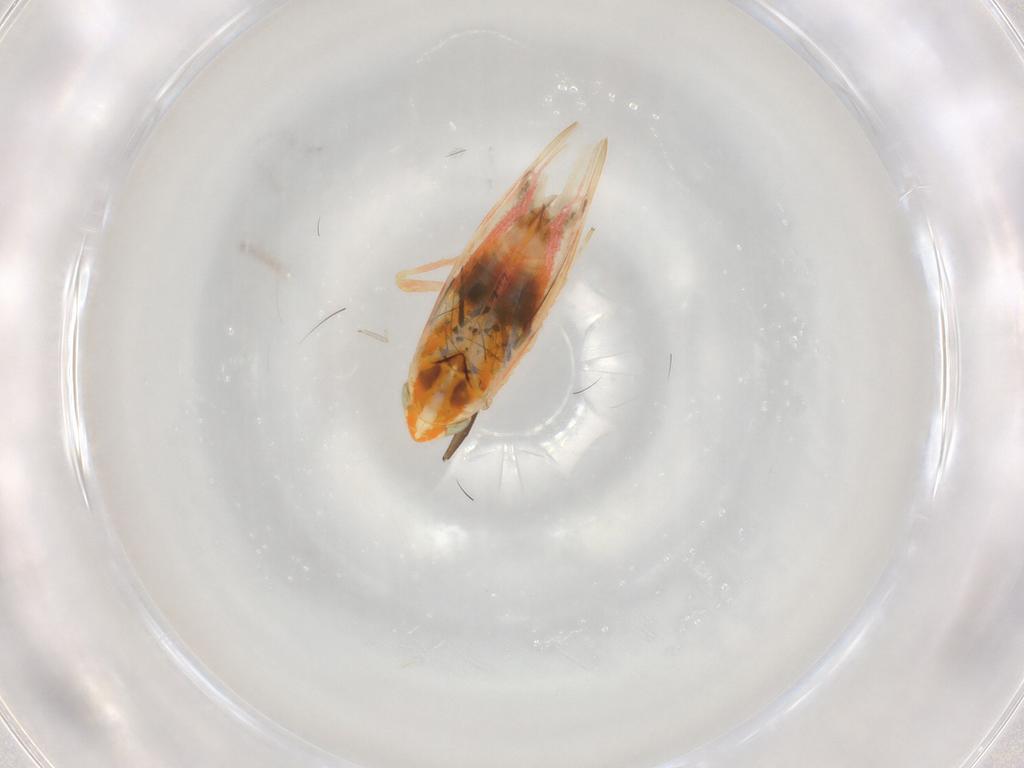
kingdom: Animalia
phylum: Arthropoda
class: Insecta
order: Hemiptera
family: Cicadellidae
